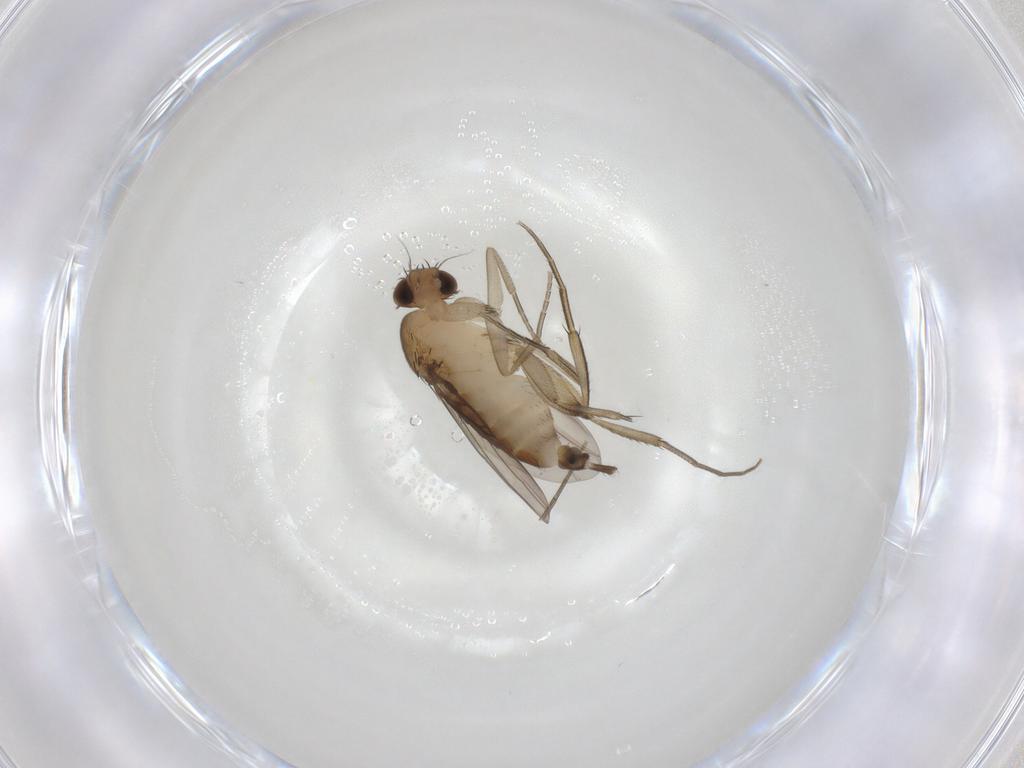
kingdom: Animalia
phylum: Arthropoda
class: Insecta
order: Diptera
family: Phoridae
